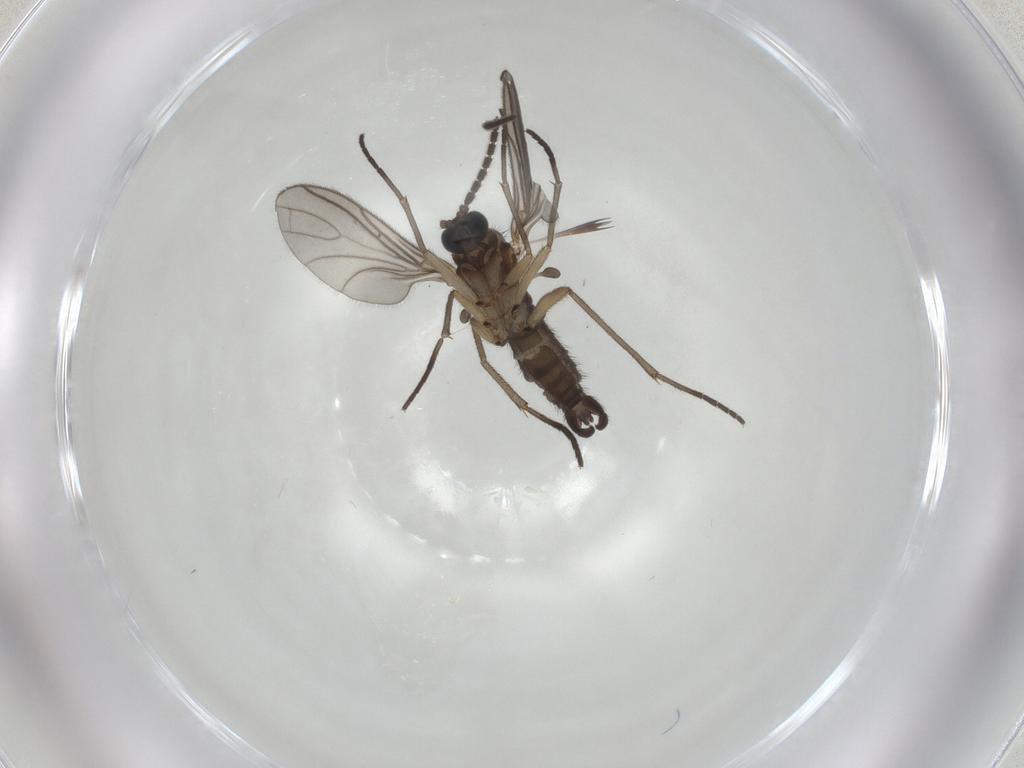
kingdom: Animalia
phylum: Arthropoda
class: Insecta
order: Diptera
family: Sciaridae
